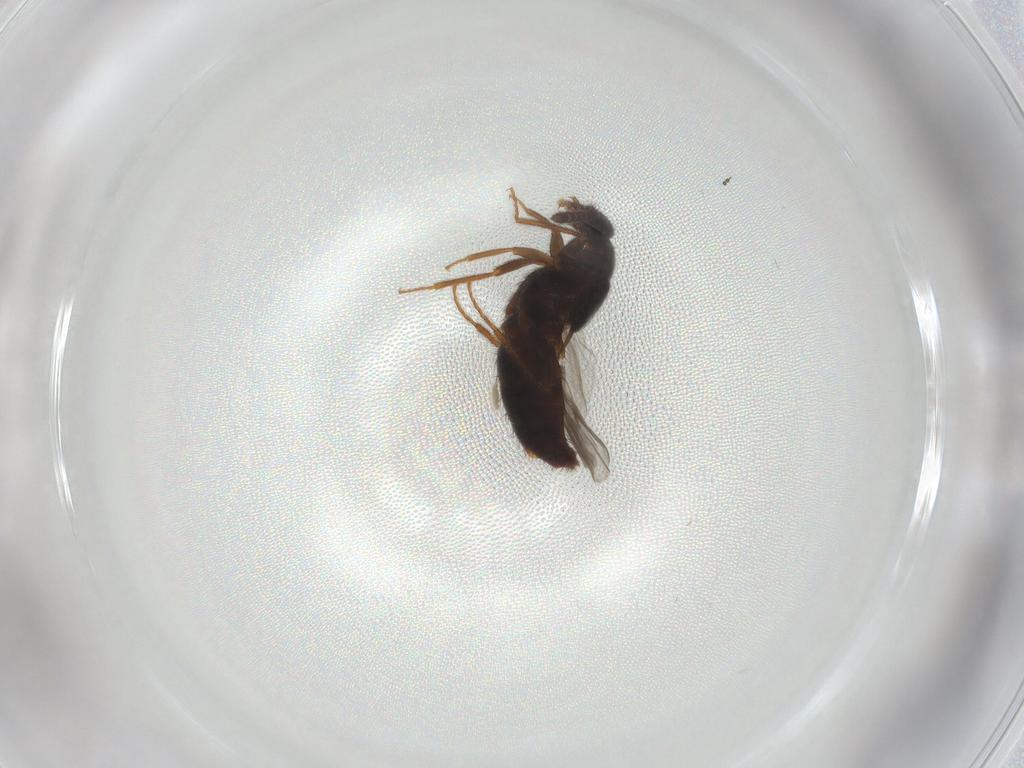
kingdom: Animalia
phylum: Arthropoda
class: Insecta
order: Coleoptera
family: Staphylinidae
